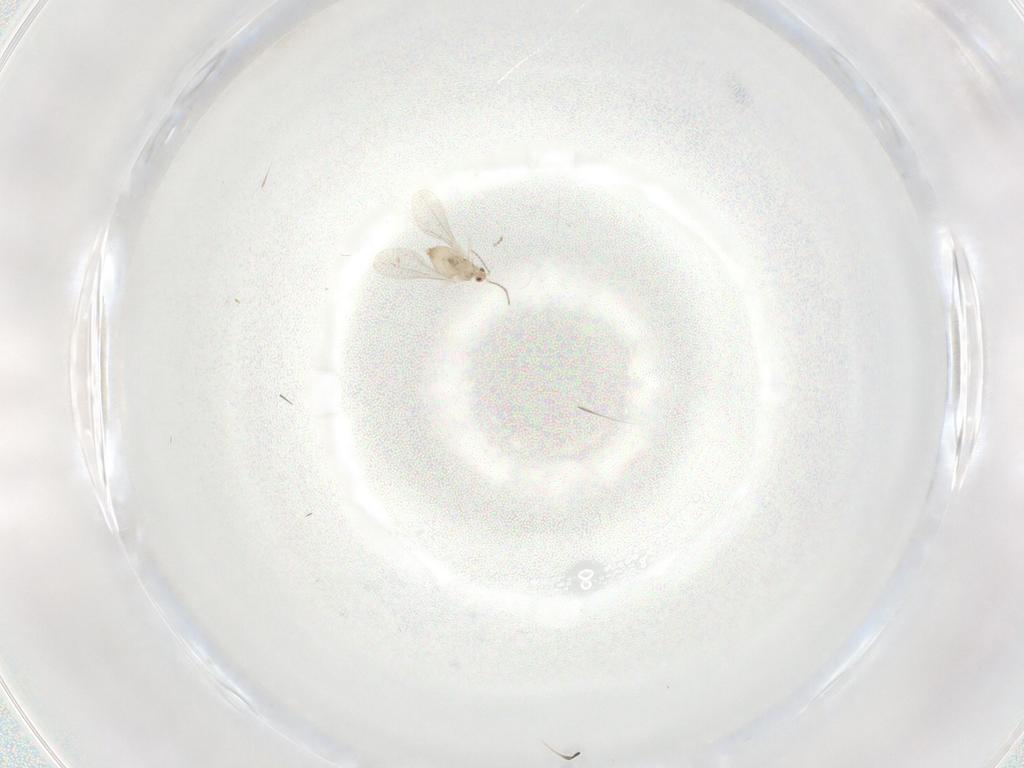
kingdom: Animalia
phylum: Arthropoda
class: Insecta
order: Diptera
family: Cecidomyiidae
